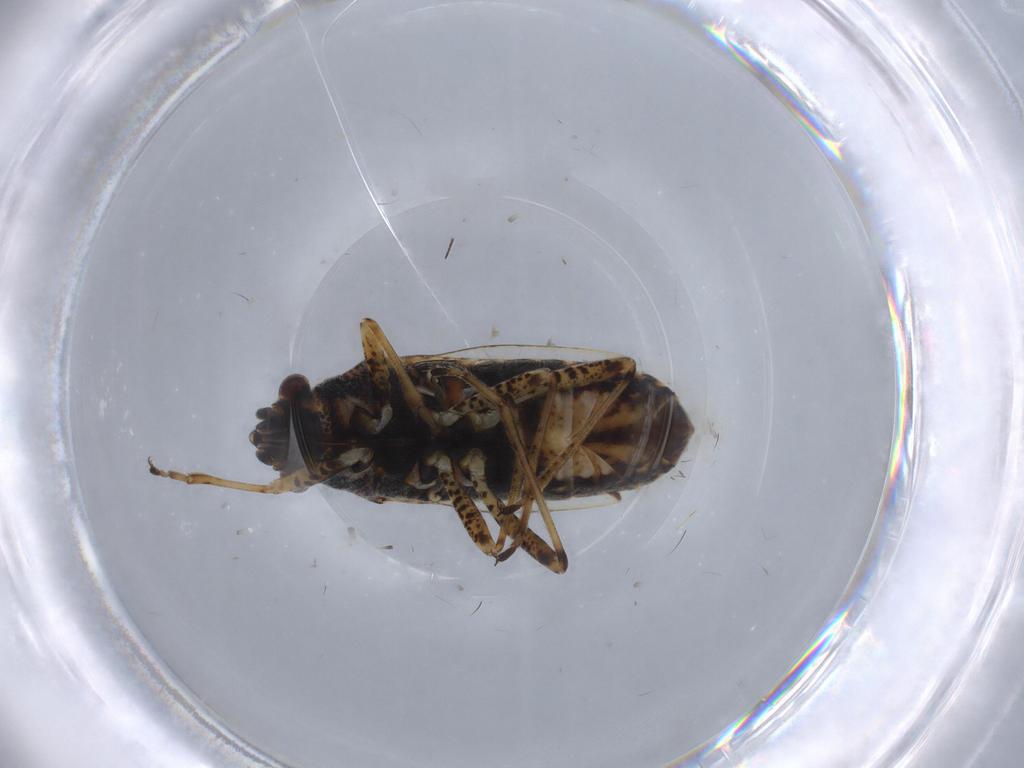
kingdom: Animalia
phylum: Arthropoda
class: Insecta
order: Hemiptera
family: Lygaeidae
